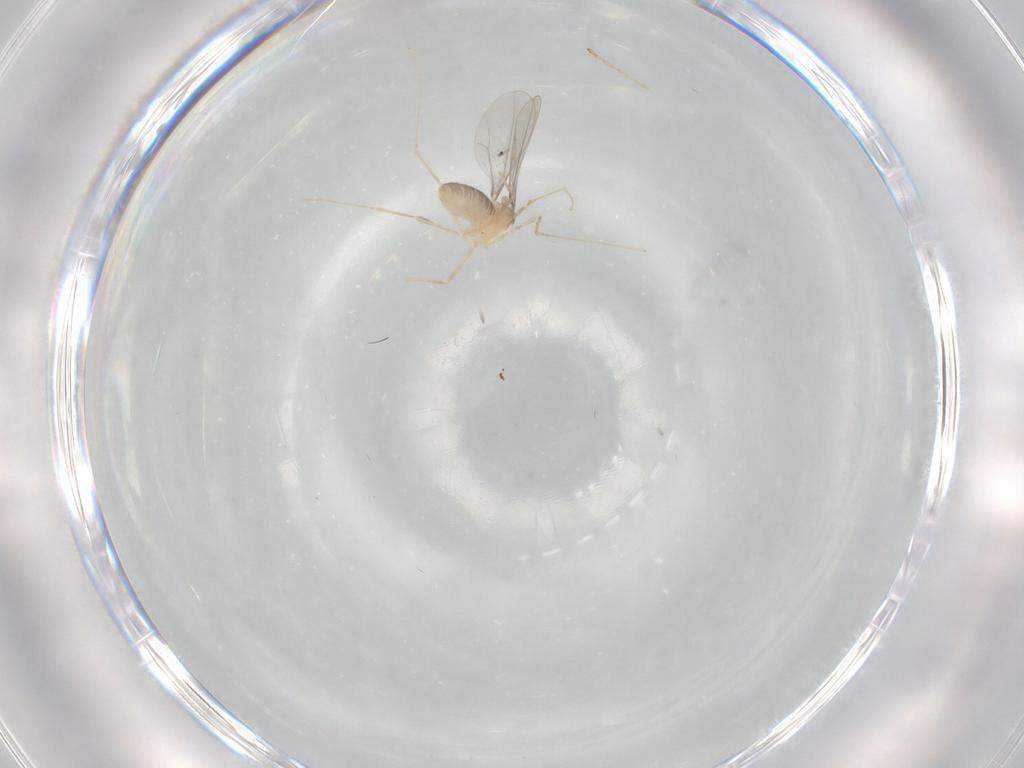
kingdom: Animalia
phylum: Arthropoda
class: Insecta
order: Diptera
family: Cecidomyiidae
